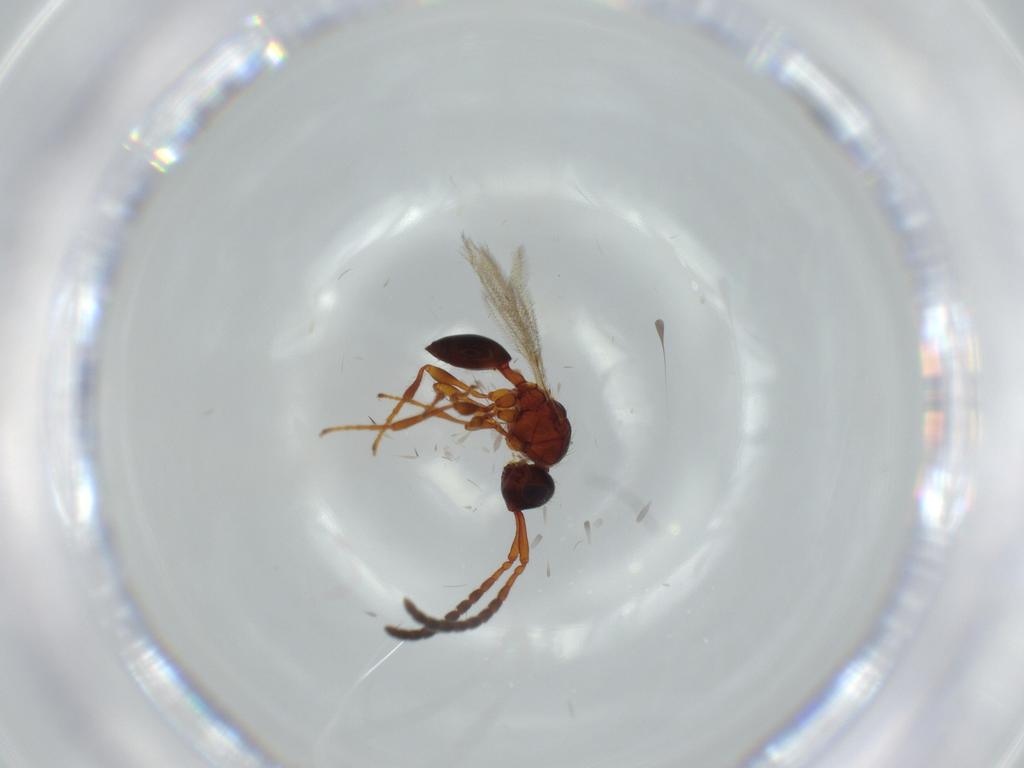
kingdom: Animalia
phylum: Arthropoda
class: Insecta
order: Hymenoptera
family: Diapriidae
